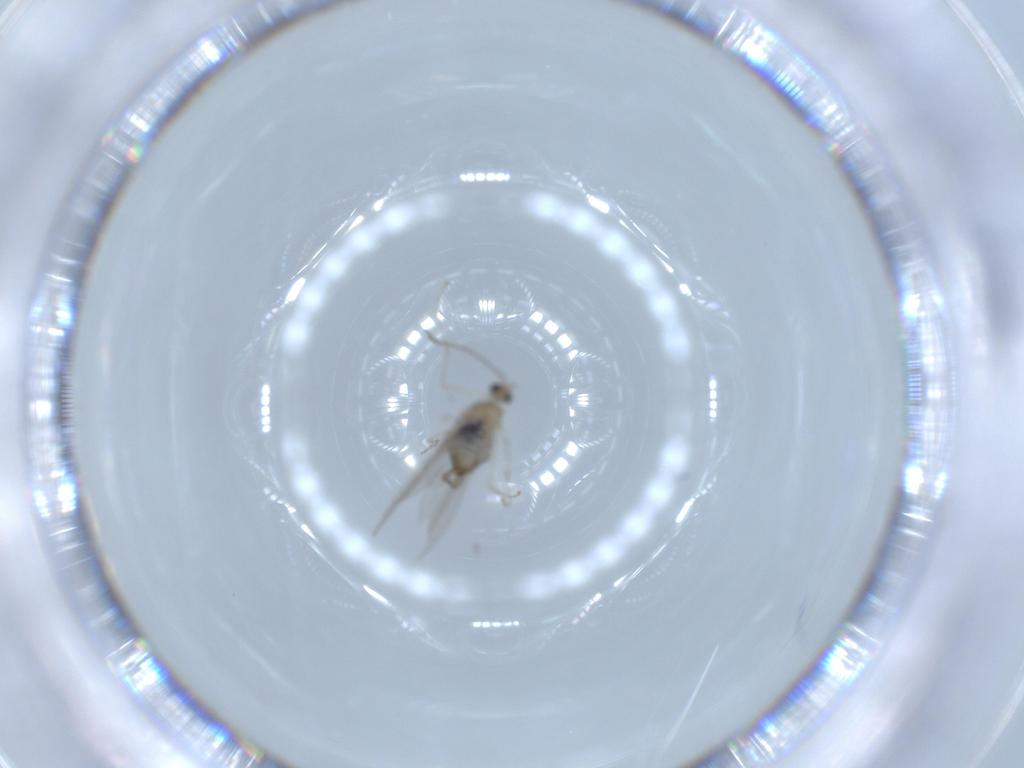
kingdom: Animalia
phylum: Arthropoda
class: Insecta
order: Diptera
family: Cecidomyiidae
